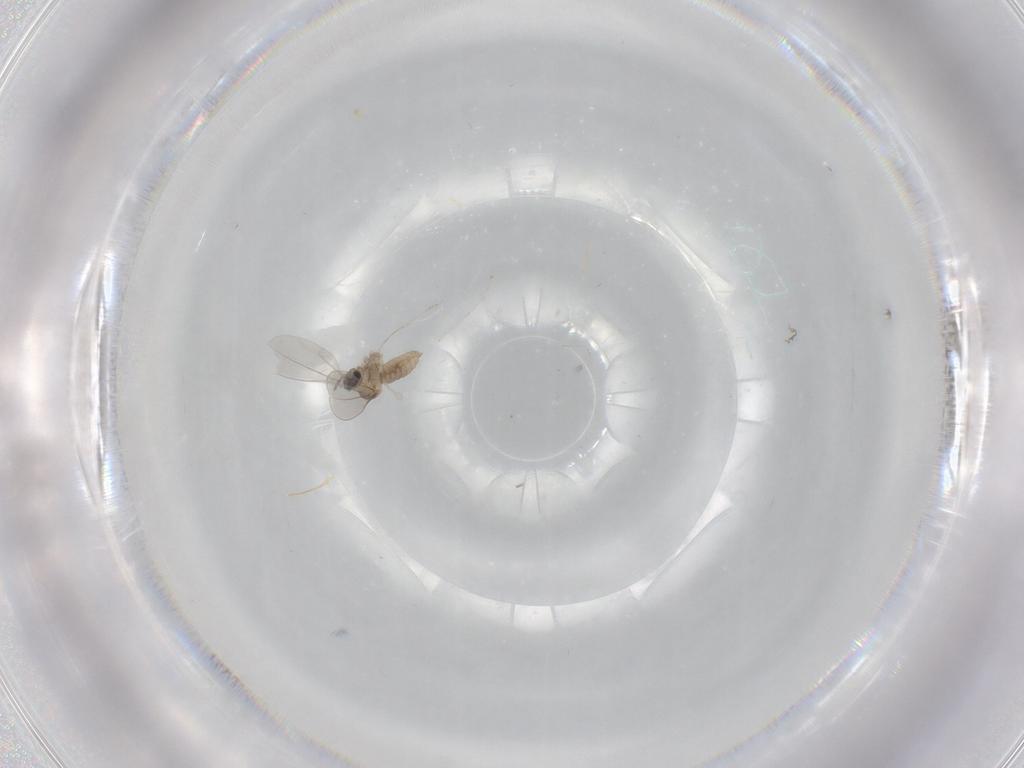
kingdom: Animalia
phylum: Arthropoda
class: Insecta
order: Diptera
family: Cecidomyiidae
